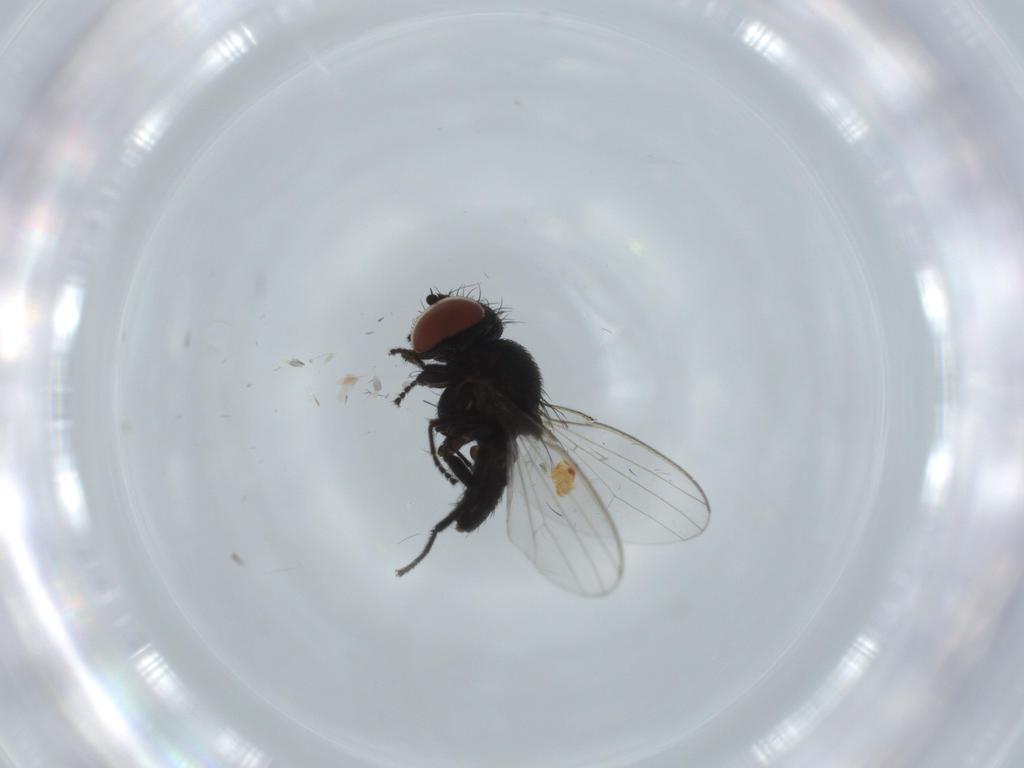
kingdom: Animalia
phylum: Arthropoda
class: Insecta
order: Diptera
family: Milichiidae
